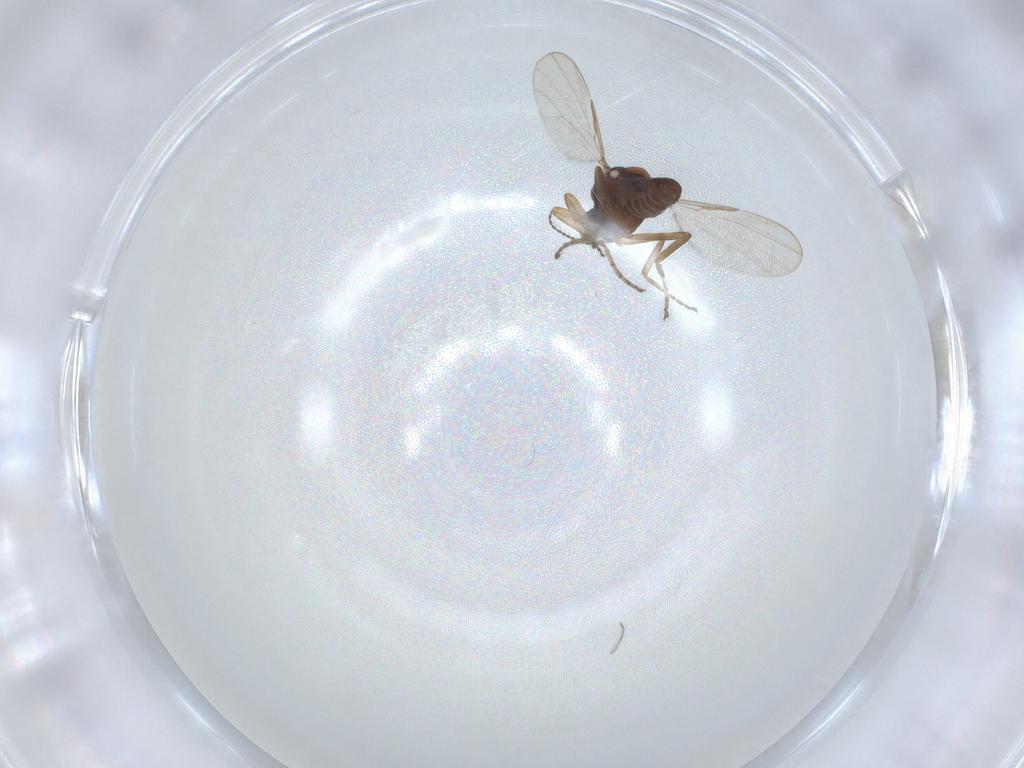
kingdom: Animalia
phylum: Arthropoda
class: Insecta
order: Diptera
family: Ceratopogonidae
